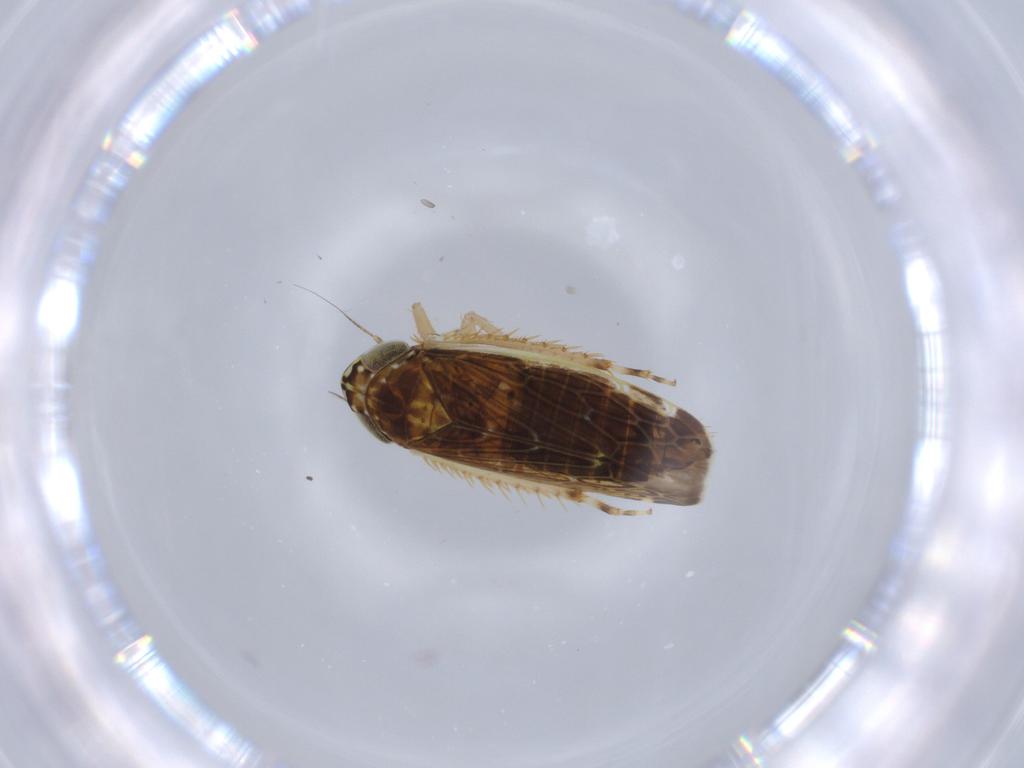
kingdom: Animalia
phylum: Arthropoda
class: Insecta
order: Hemiptera
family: Cicadellidae
